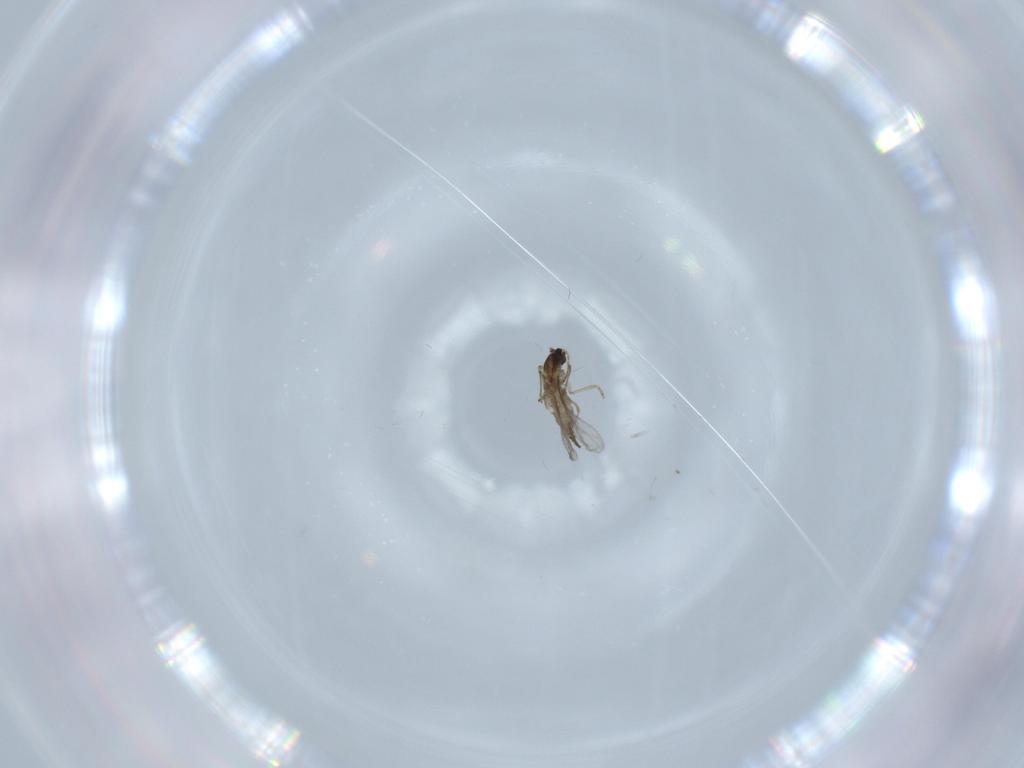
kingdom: Animalia
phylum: Arthropoda
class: Insecta
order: Diptera
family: Cecidomyiidae
